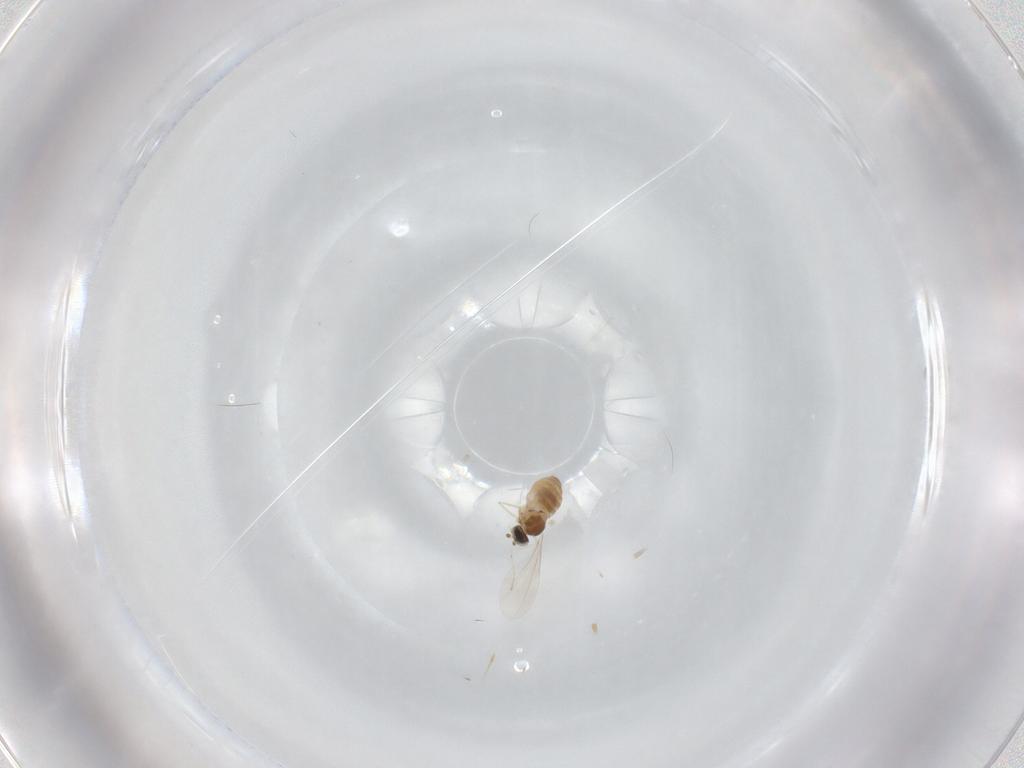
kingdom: Animalia
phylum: Arthropoda
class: Insecta
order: Diptera
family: Cecidomyiidae
